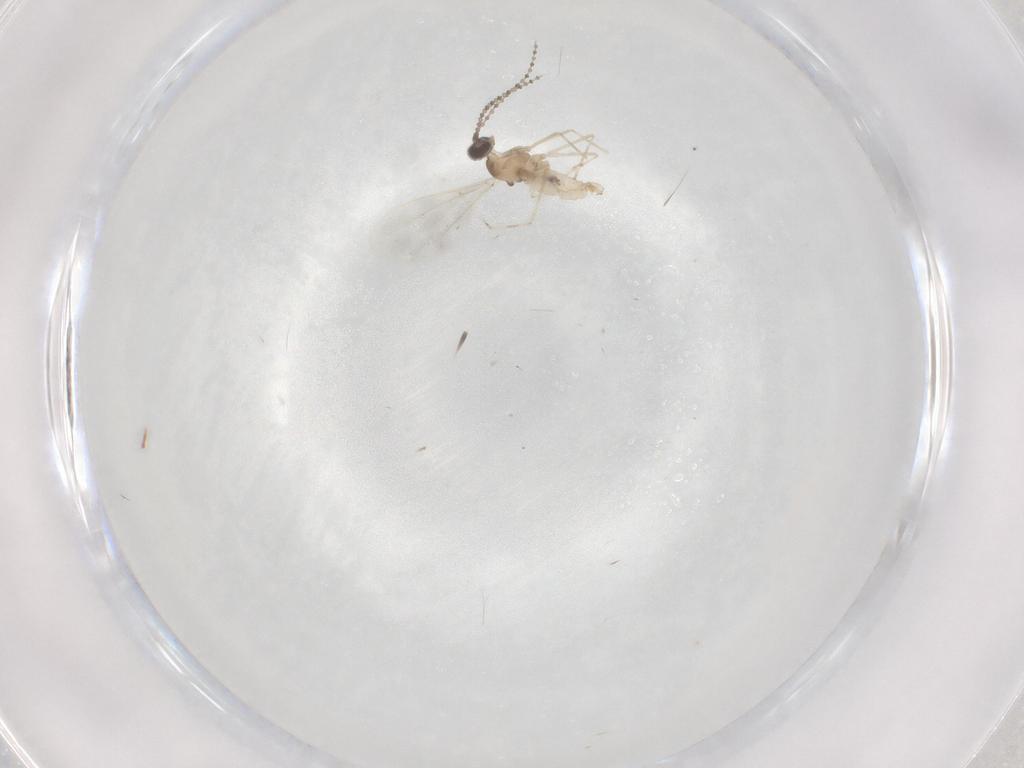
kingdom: Animalia
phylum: Arthropoda
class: Insecta
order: Diptera
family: Cecidomyiidae
